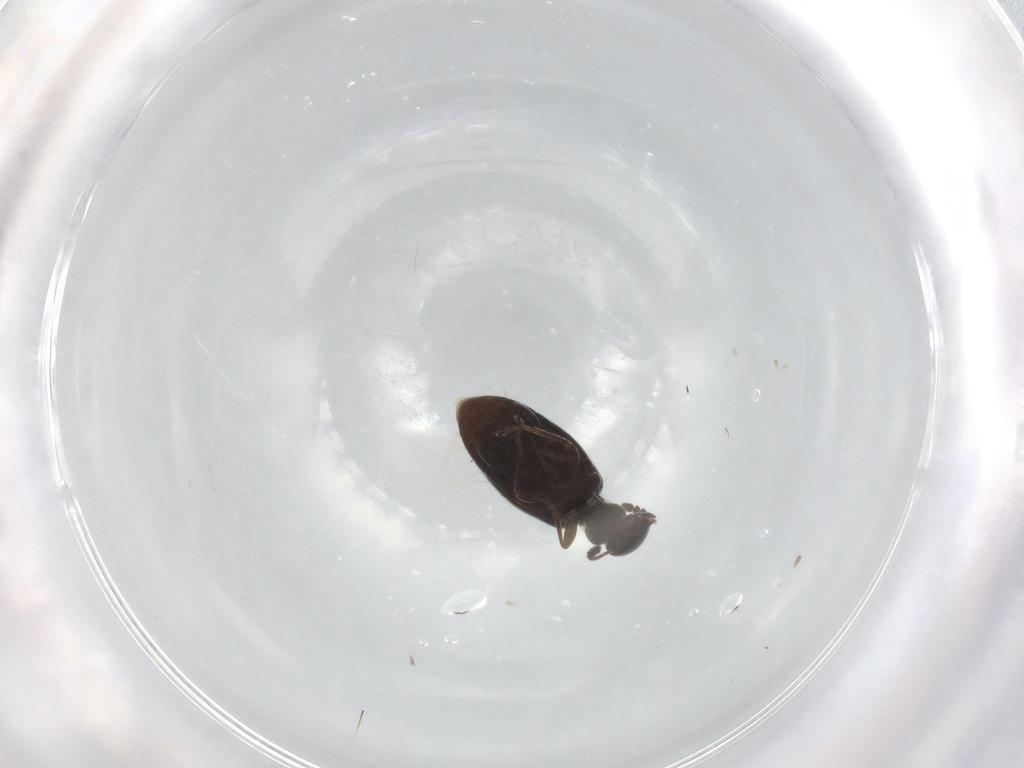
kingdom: Animalia
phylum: Arthropoda
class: Insecta
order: Coleoptera
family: Anthicidae
